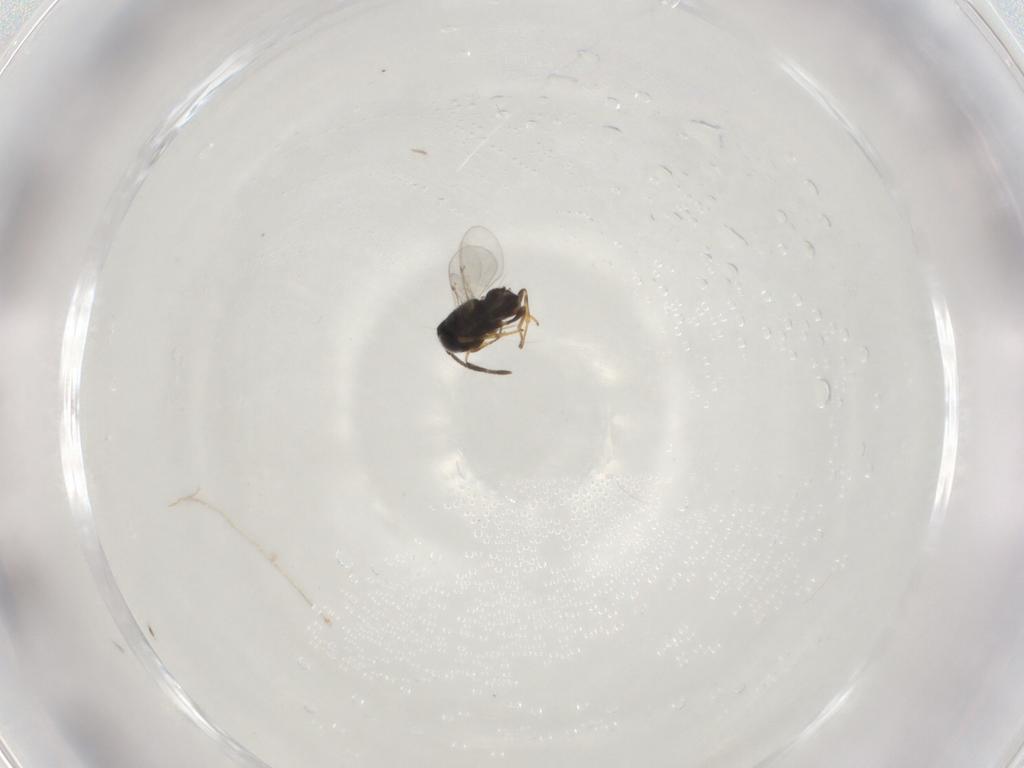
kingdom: Animalia
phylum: Arthropoda
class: Insecta
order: Hymenoptera
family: Eupelmidae
